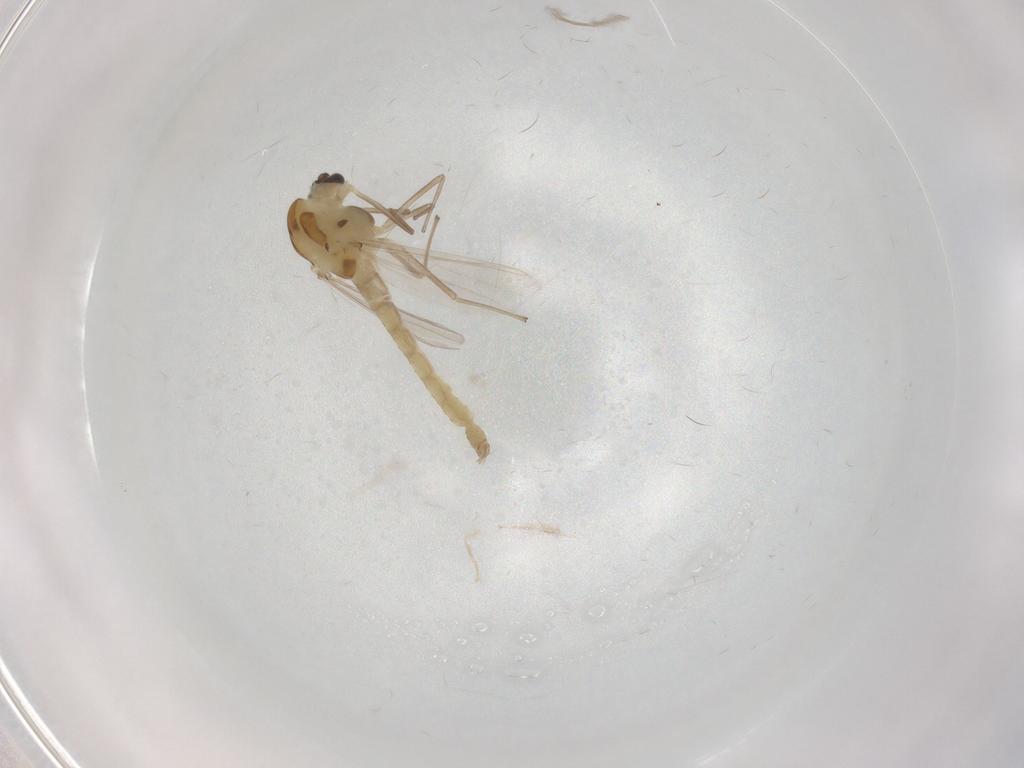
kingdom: Animalia
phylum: Arthropoda
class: Insecta
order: Diptera
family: Chironomidae
